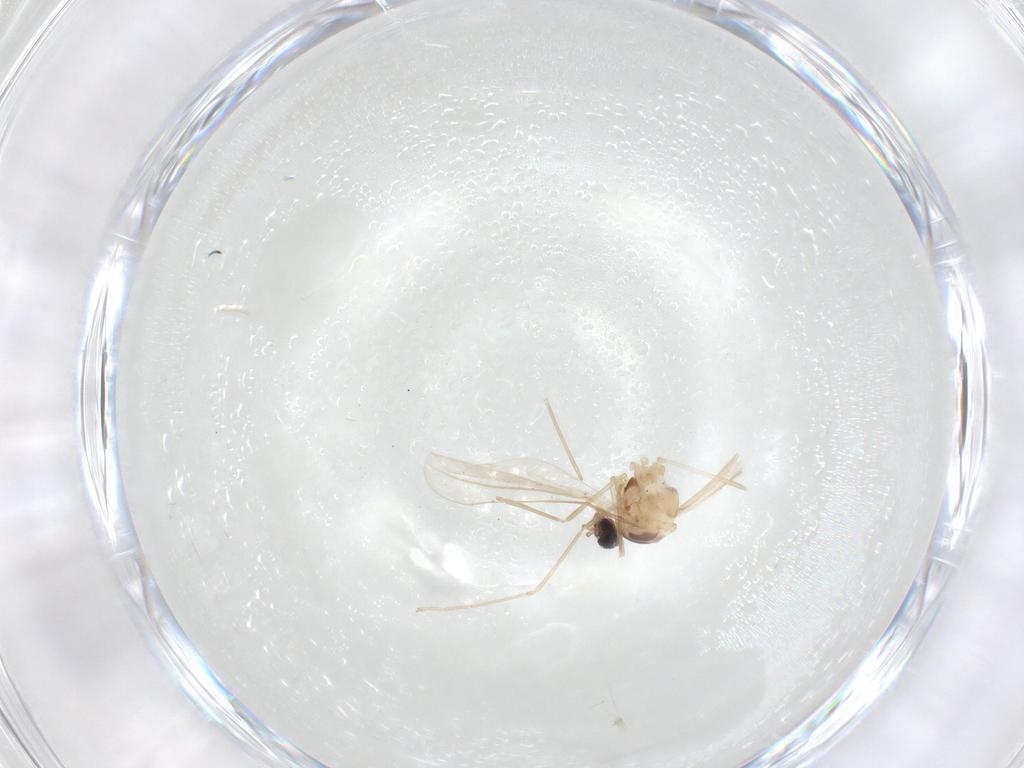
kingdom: Animalia
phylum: Arthropoda
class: Insecta
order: Diptera
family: Cecidomyiidae
